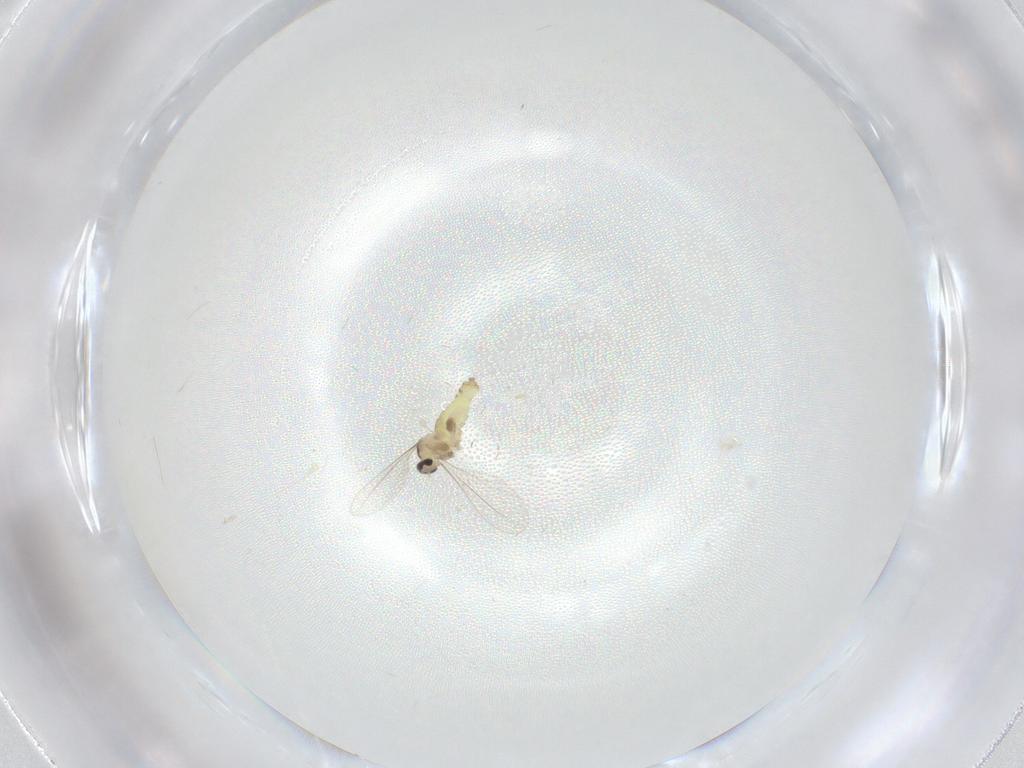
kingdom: Animalia
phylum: Arthropoda
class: Insecta
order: Diptera
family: Cecidomyiidae
